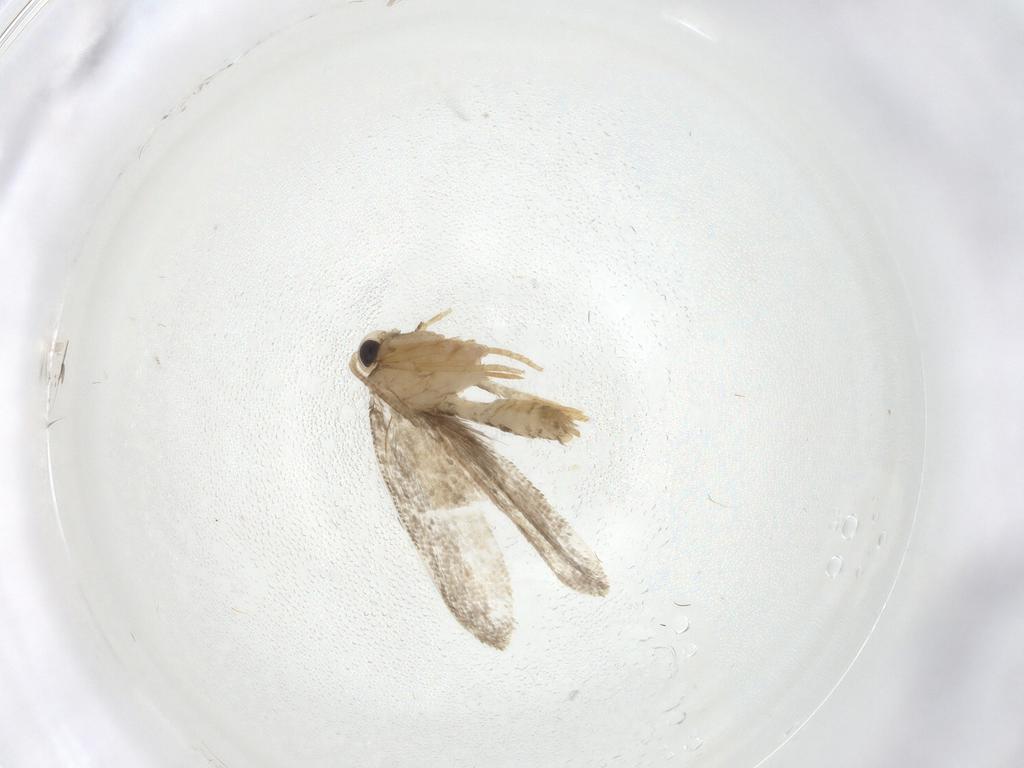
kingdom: Animalia
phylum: Arthropoda
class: Insecta
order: Lepidoptera
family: Psychidae
